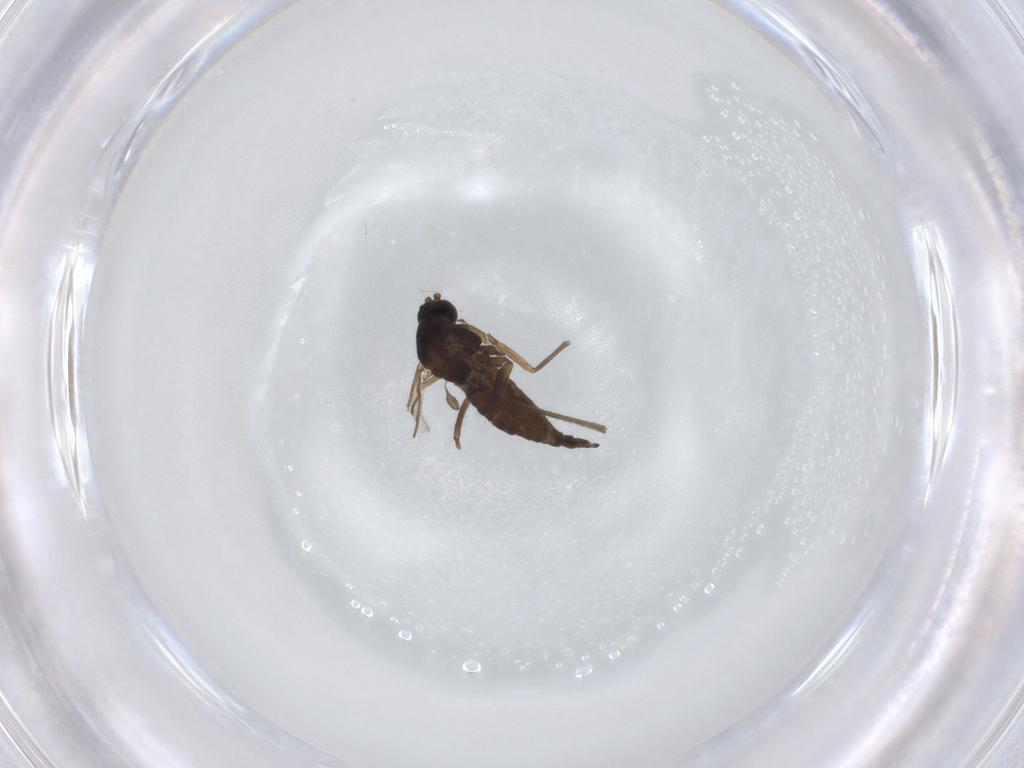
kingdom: Animalia
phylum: Arthropoda
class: Insecta
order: Diptera
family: Sciaridae
